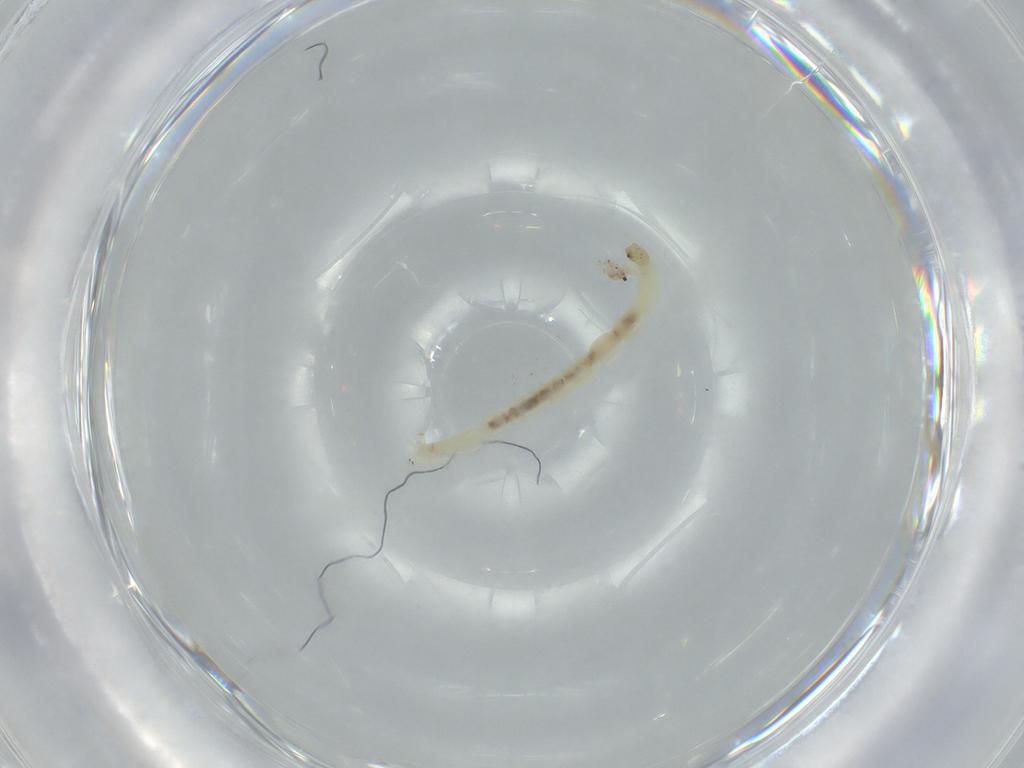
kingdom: Animalia
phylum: Arthropoda
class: Insecta
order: Diptera
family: Chironomidae
